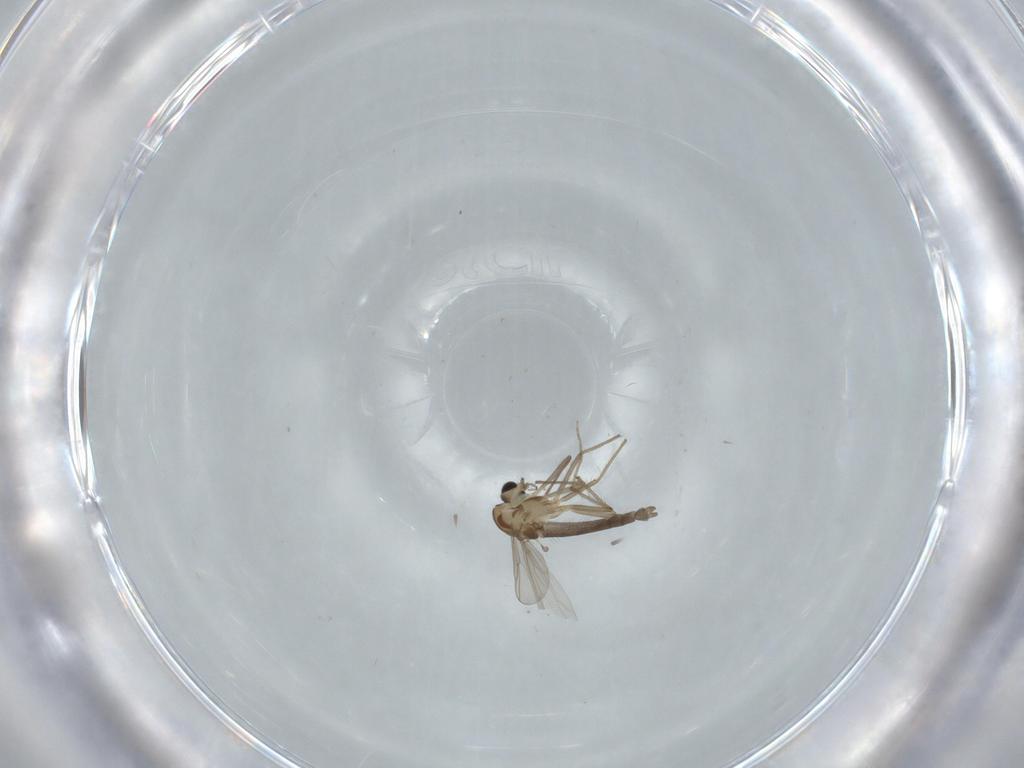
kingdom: Animalia
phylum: Arthropoda
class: Insecta
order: Diptera
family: Chironomidae
